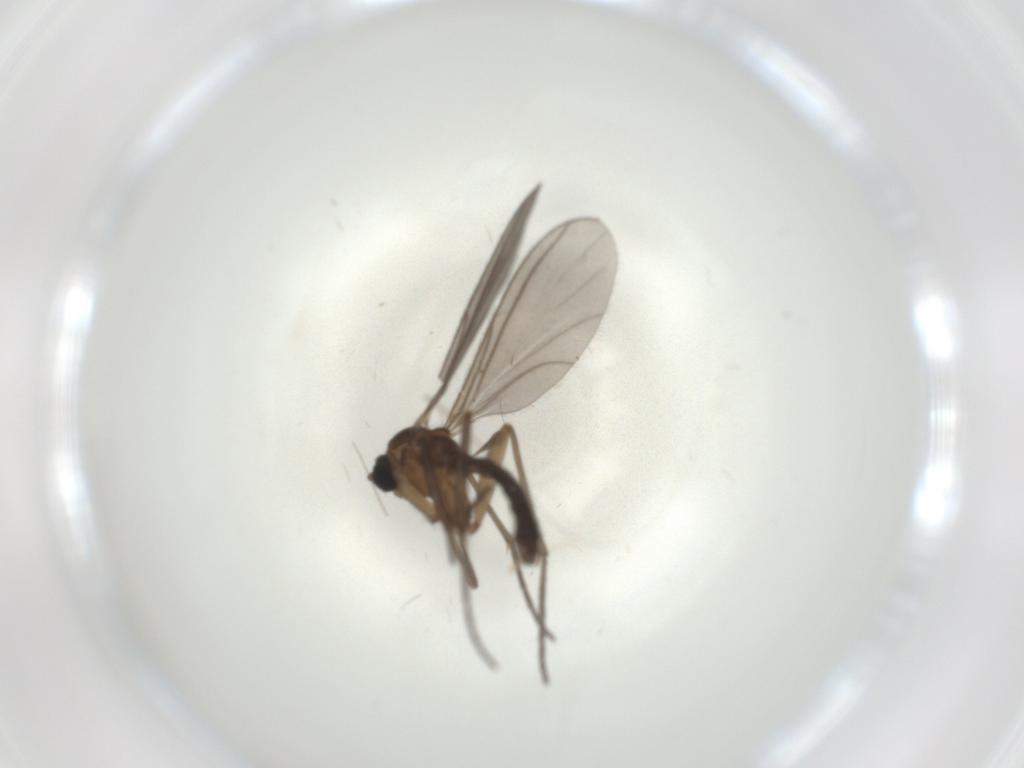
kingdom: Animalia
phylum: Arthropoda
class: Insecta
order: Diptera
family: Sciaridae
